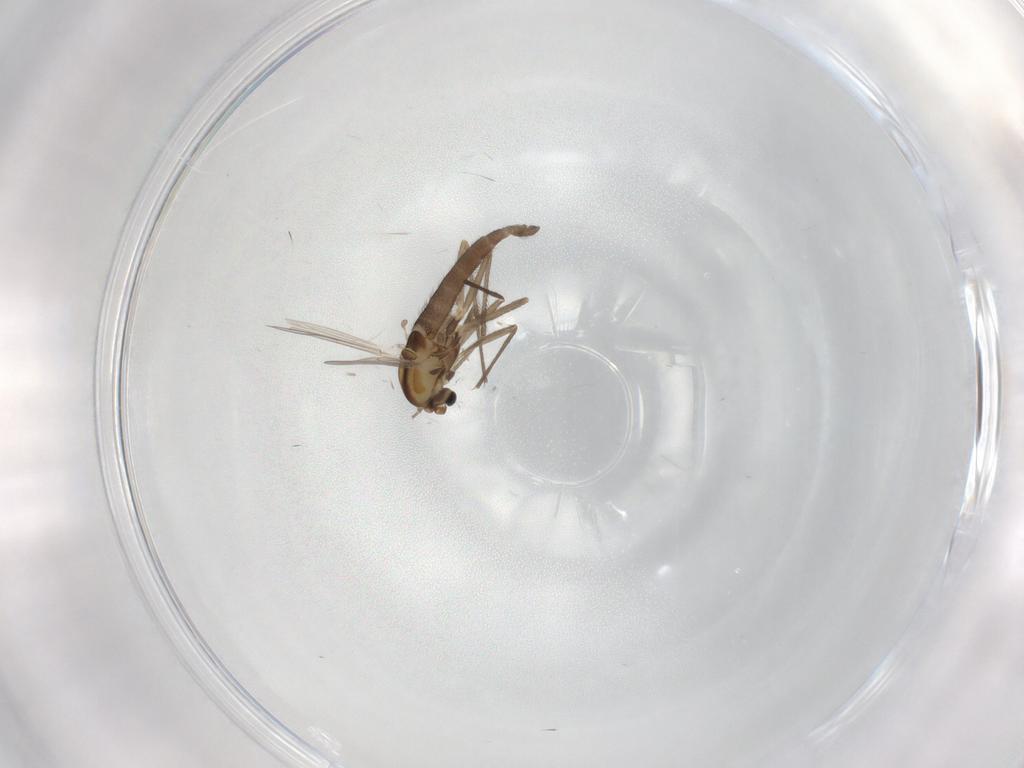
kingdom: Animalia
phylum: Arthropoda
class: Insecta
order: Diptera
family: Chironomidae
